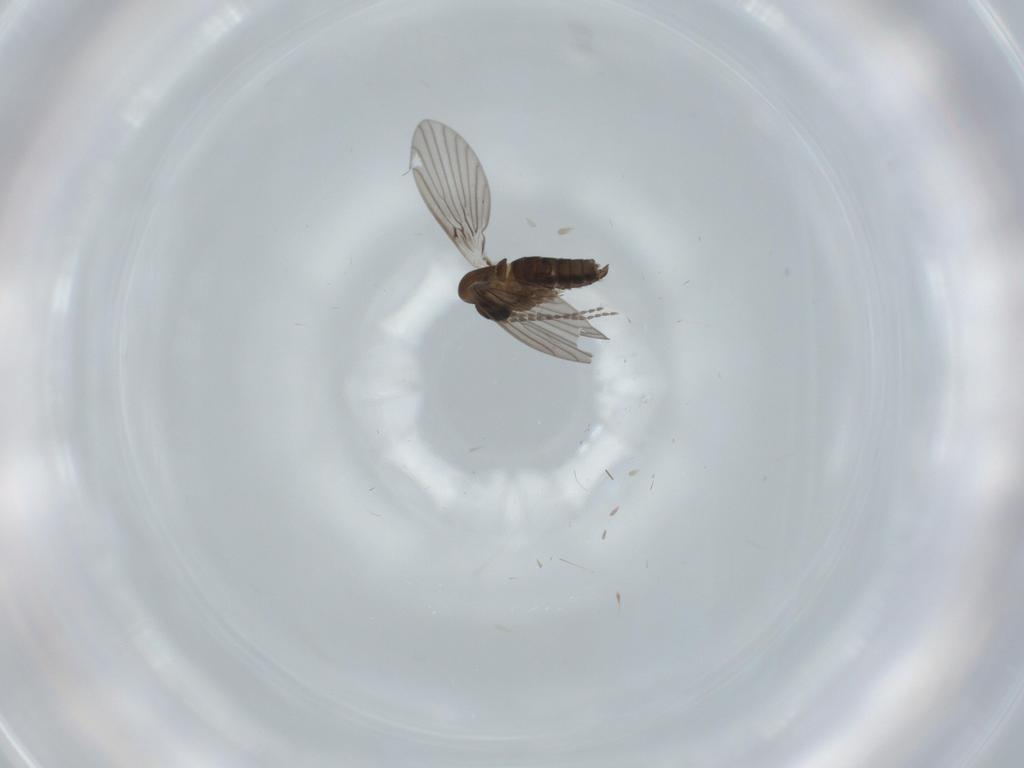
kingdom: Animalia
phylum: Arthropoda
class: Insecta
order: Diptera
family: Ceratopogonidae
